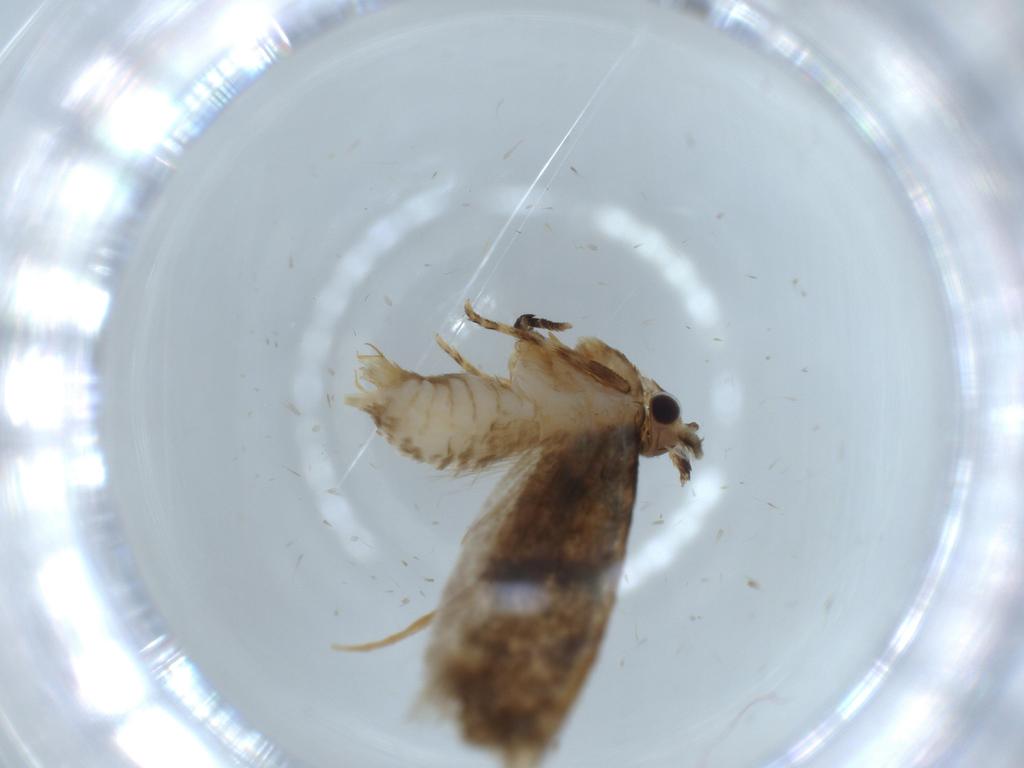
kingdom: Animalia
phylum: Arthropoda
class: Insecta
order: Lepidoptera
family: Tineidae
